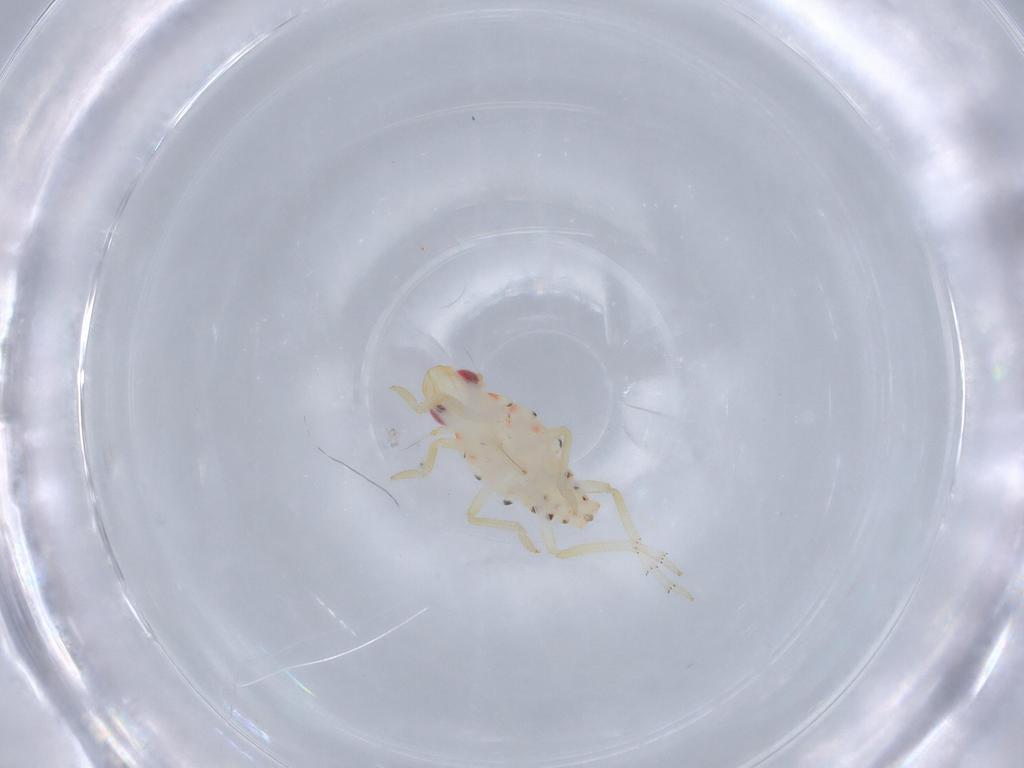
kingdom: Animalia
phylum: Arthropoda
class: Insecta
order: Hemiptera
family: Tropiduchidae
